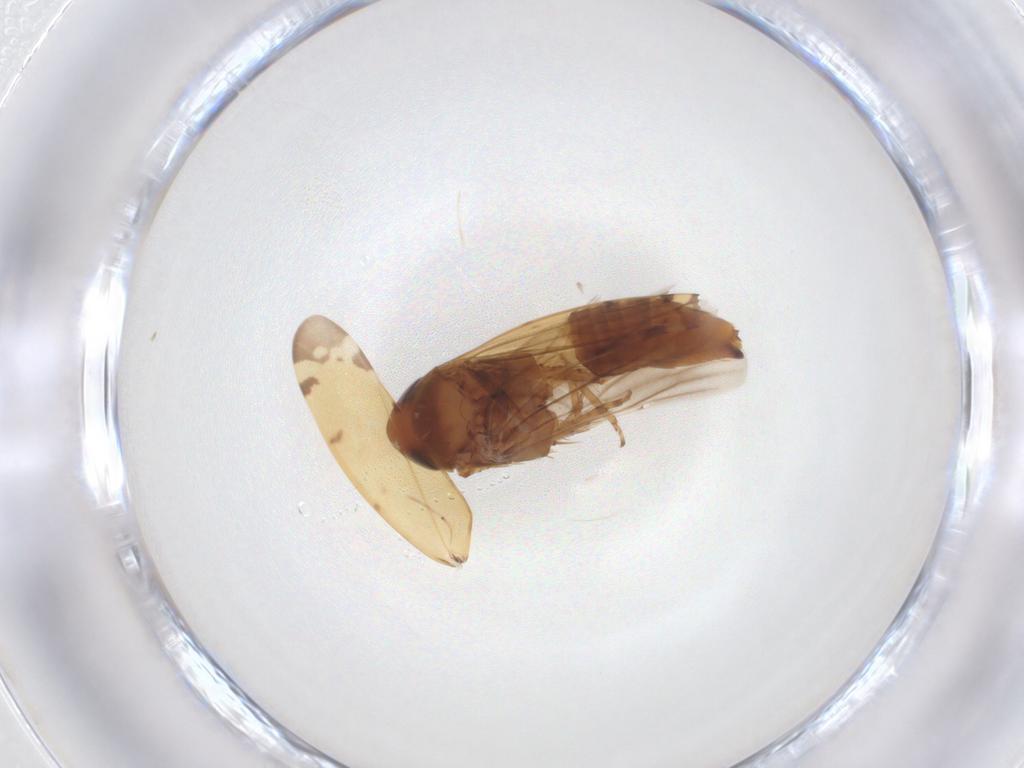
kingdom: Animalia
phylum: Arthropoda
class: Insecta
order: Hemiptera
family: Cicadellidae
